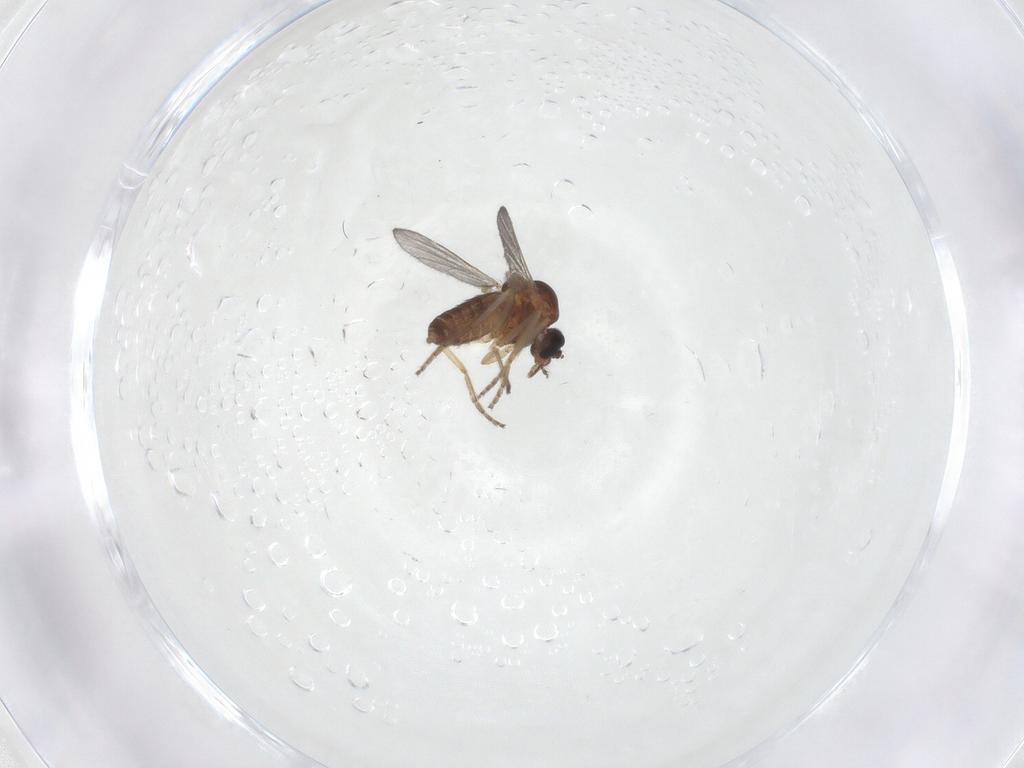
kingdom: Animalia
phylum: Arthropoda
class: Insecta
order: Diptera
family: Ceratopogonidae
